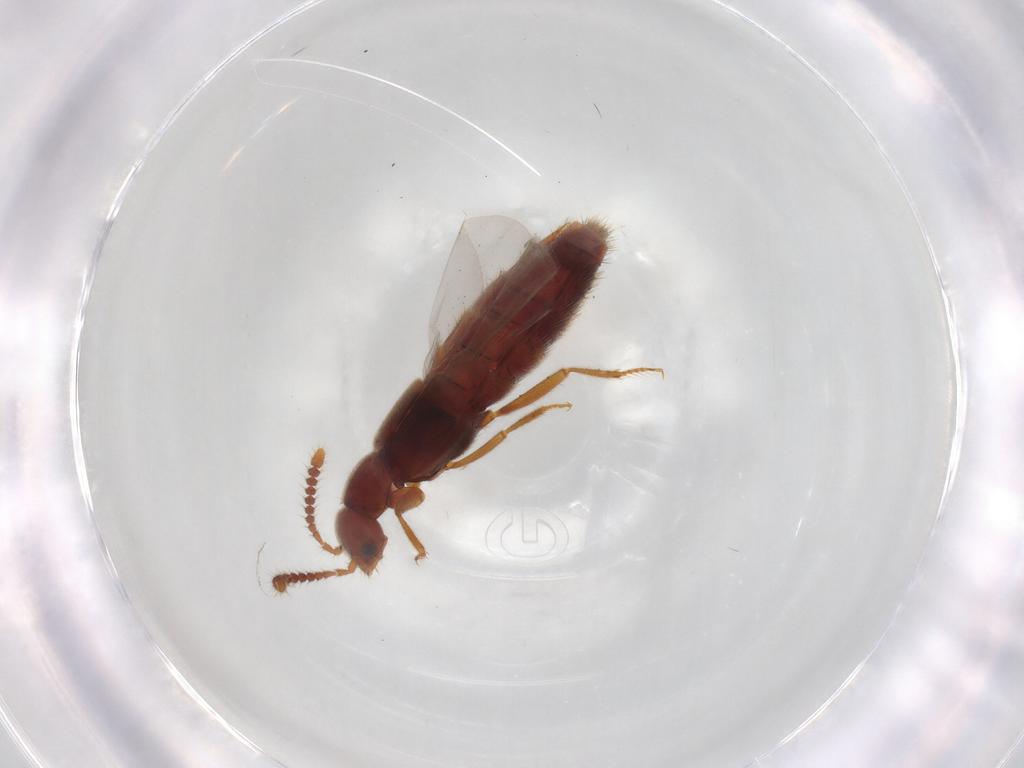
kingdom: Animalia
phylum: Arthropoda
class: Insecta
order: Coleoptera
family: Staphylinidae
